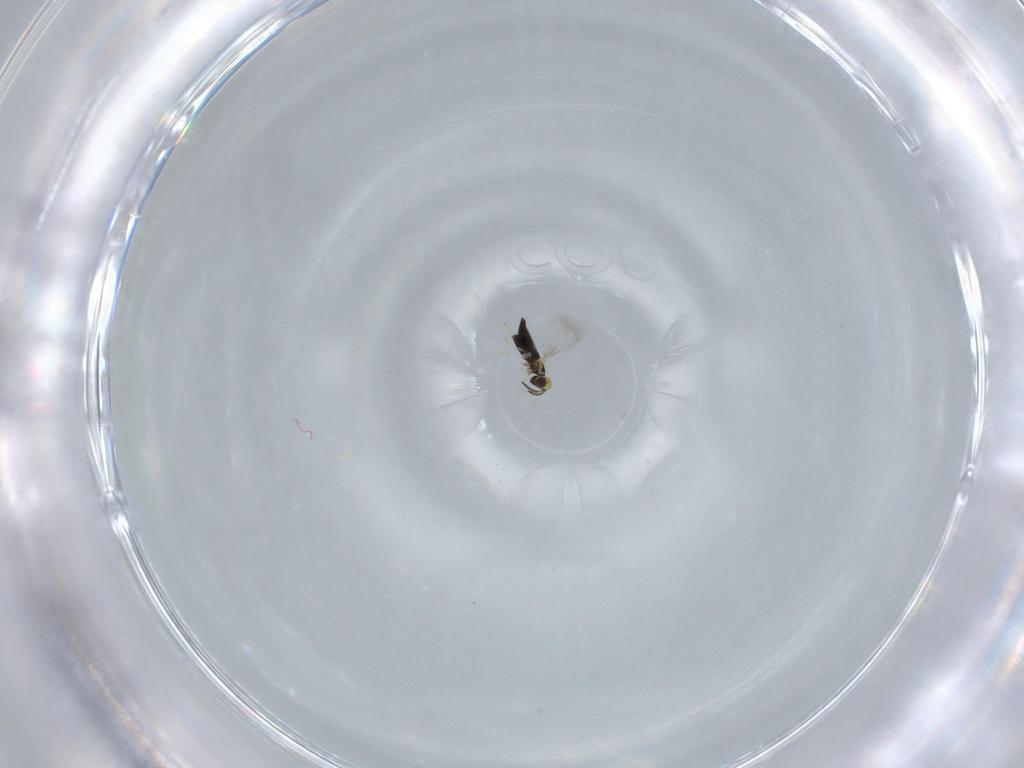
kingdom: Animalia
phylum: Arthropoda
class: Insecta
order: Hymenoptera
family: Signiphoridae
